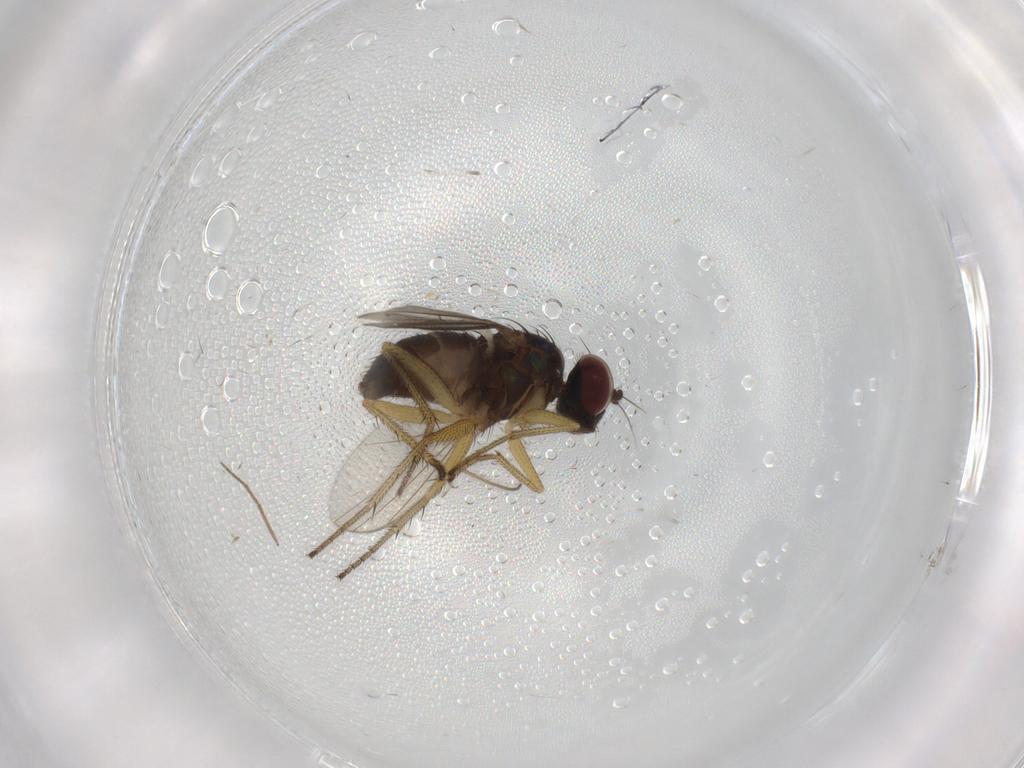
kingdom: Animalia
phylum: Arthropoda
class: Insecta
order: Diptera
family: Dolichopodidae
